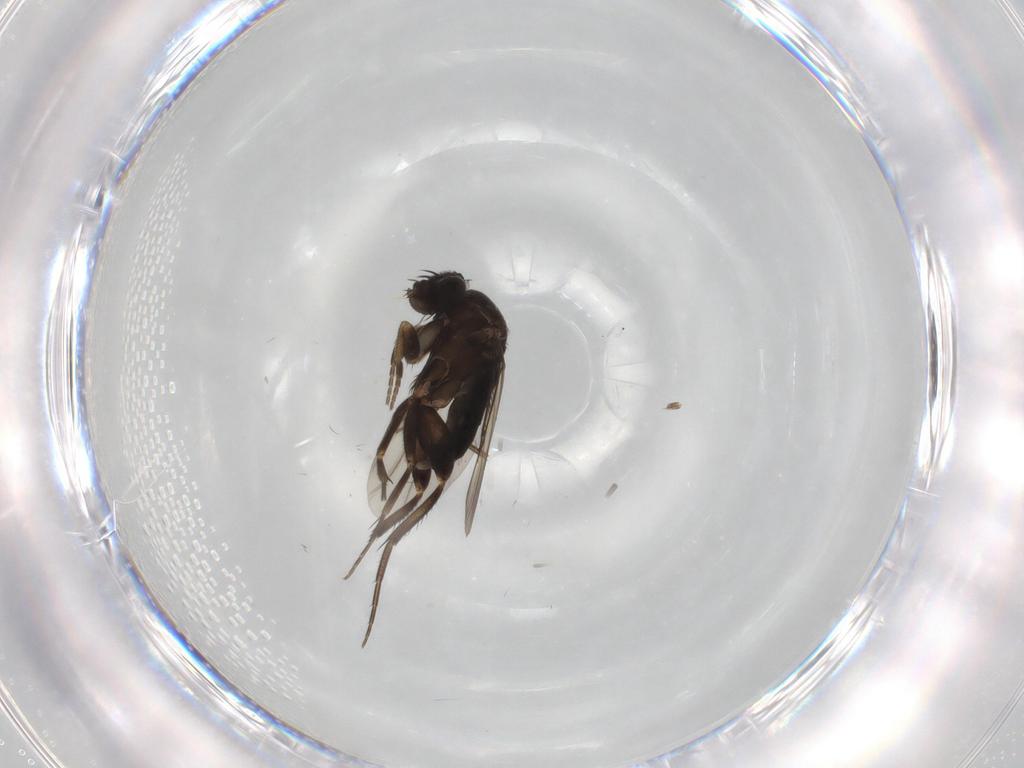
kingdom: Animalia
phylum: Arthropoda
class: Insecta
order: Diptera
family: Phoridae
